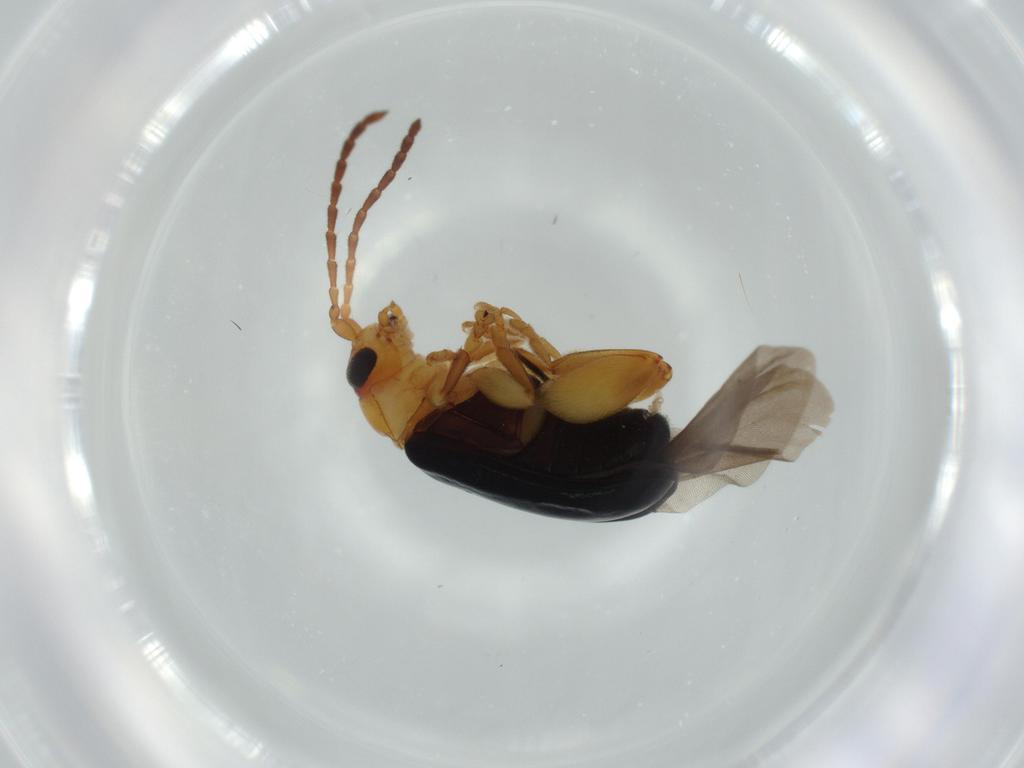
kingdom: Animalia
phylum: Arthropoda
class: Insecta
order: Coleoptera
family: Chrysomelidae
